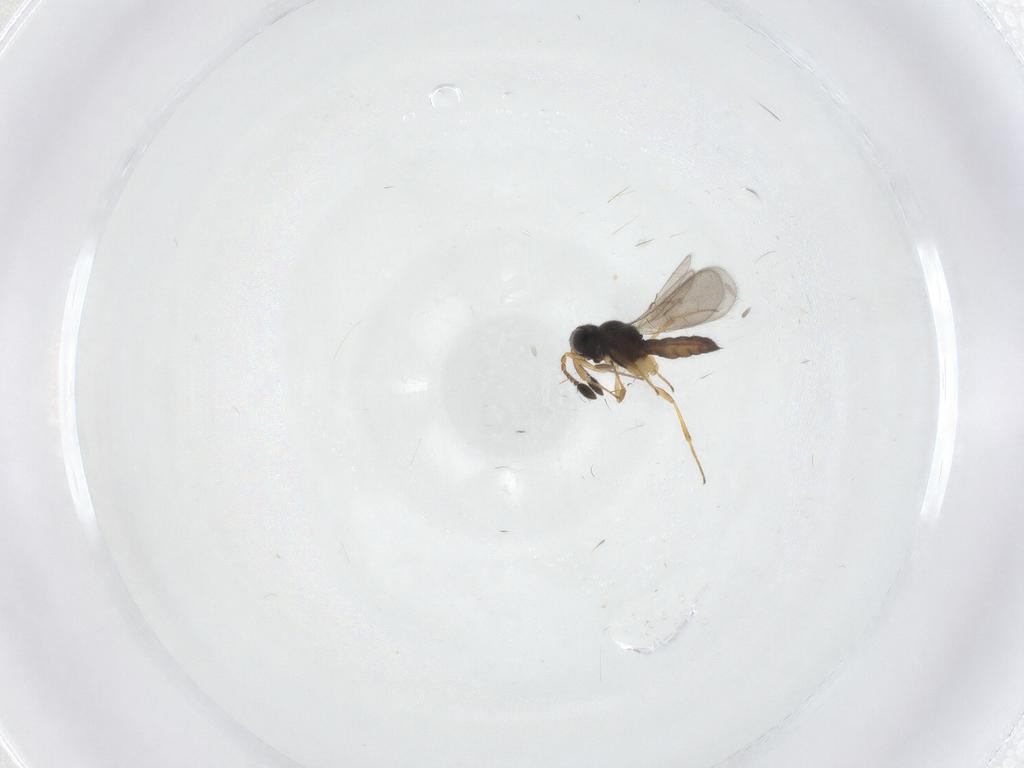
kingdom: Animalia
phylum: Arthropoda
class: Insecta
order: Hymenoptera
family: Scelionidae
